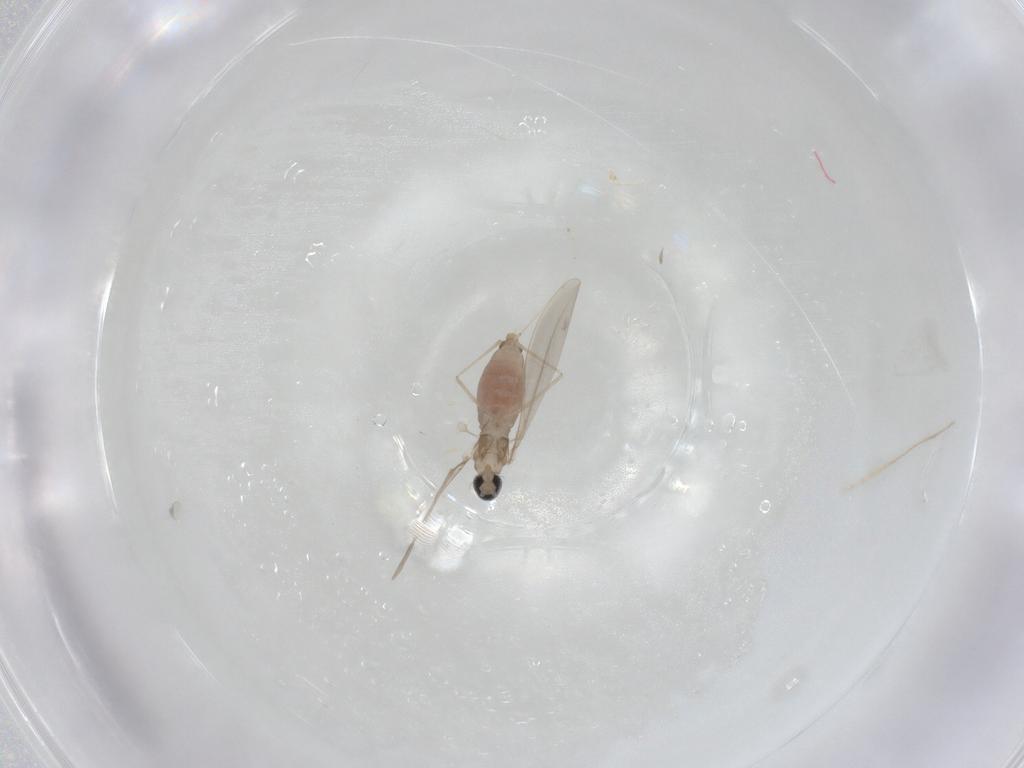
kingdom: Animalia
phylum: Arthropoda
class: Insecta
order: Diptera
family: Cecidomyiidae
